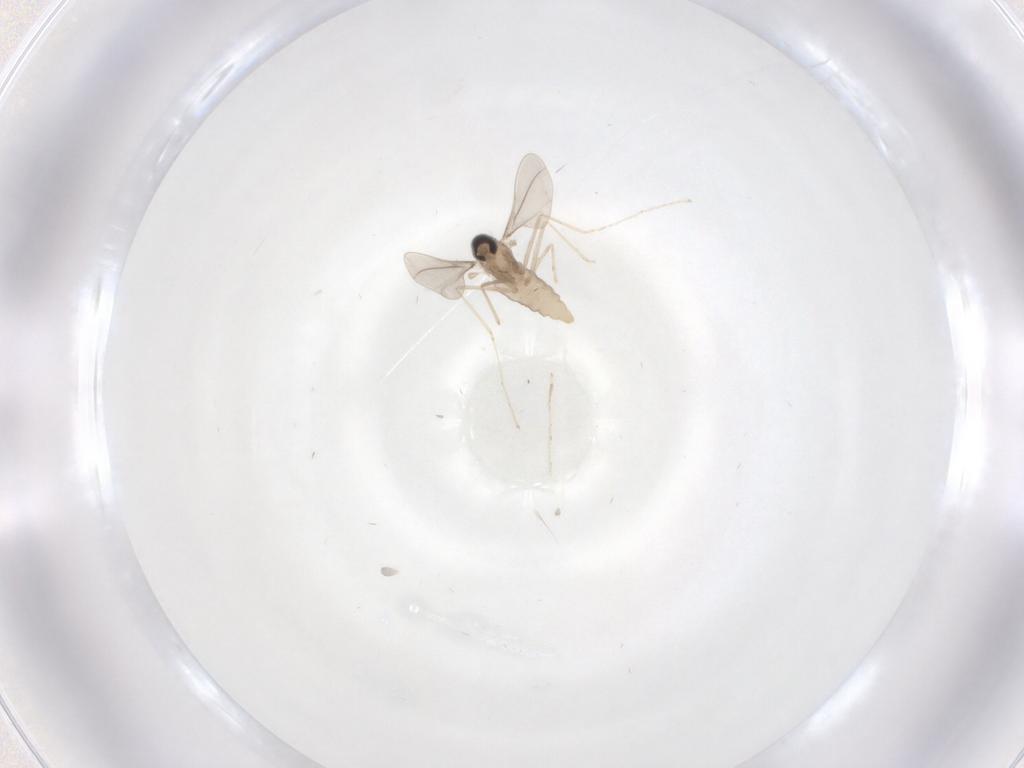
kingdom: Animalia
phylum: Arthropoda
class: Insecta
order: Diptera
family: Cecidomyiidae
